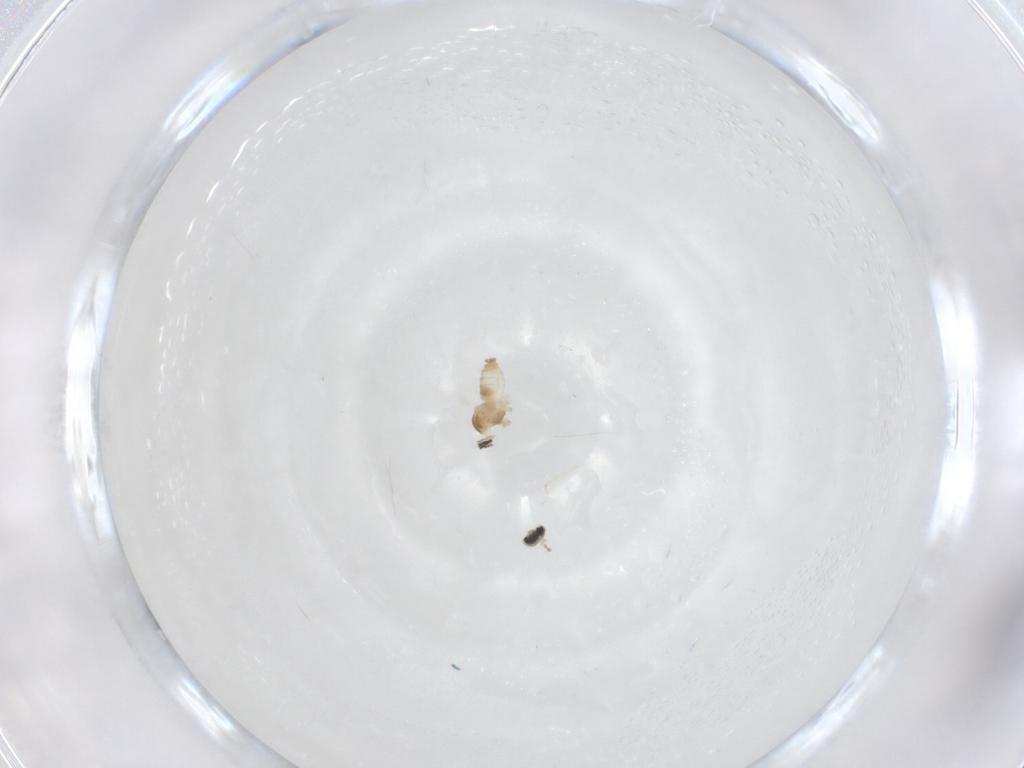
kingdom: Animalia
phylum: Arthropoda
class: Insecta
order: Diptera
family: Cecidomyiidae
